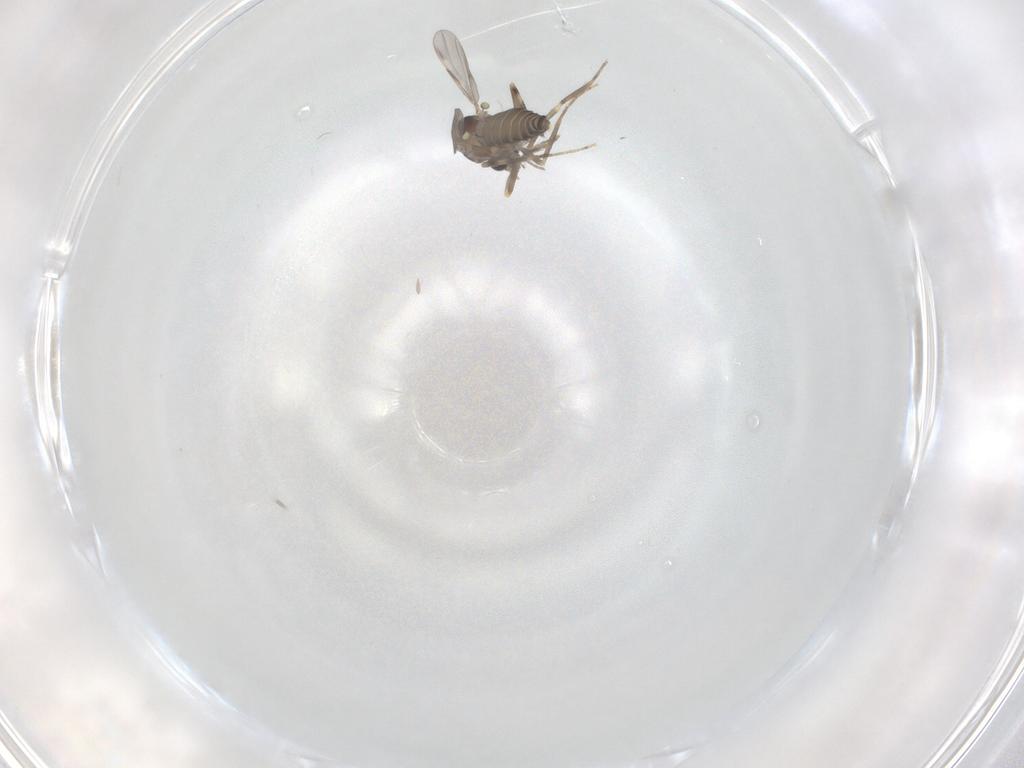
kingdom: Animalia
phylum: Arthropoda
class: Insecta
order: Diptera
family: Ceratopogonidae
